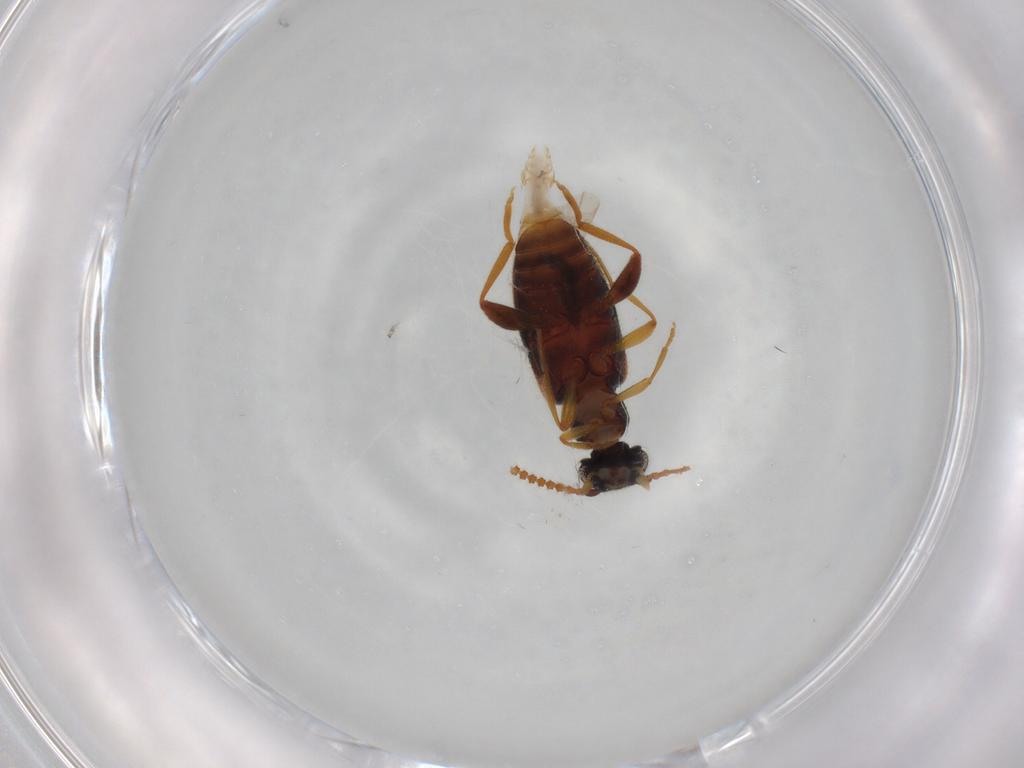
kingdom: Animalia
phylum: Arthropoda
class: Insecta
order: Coleoptera
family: Aderidae
